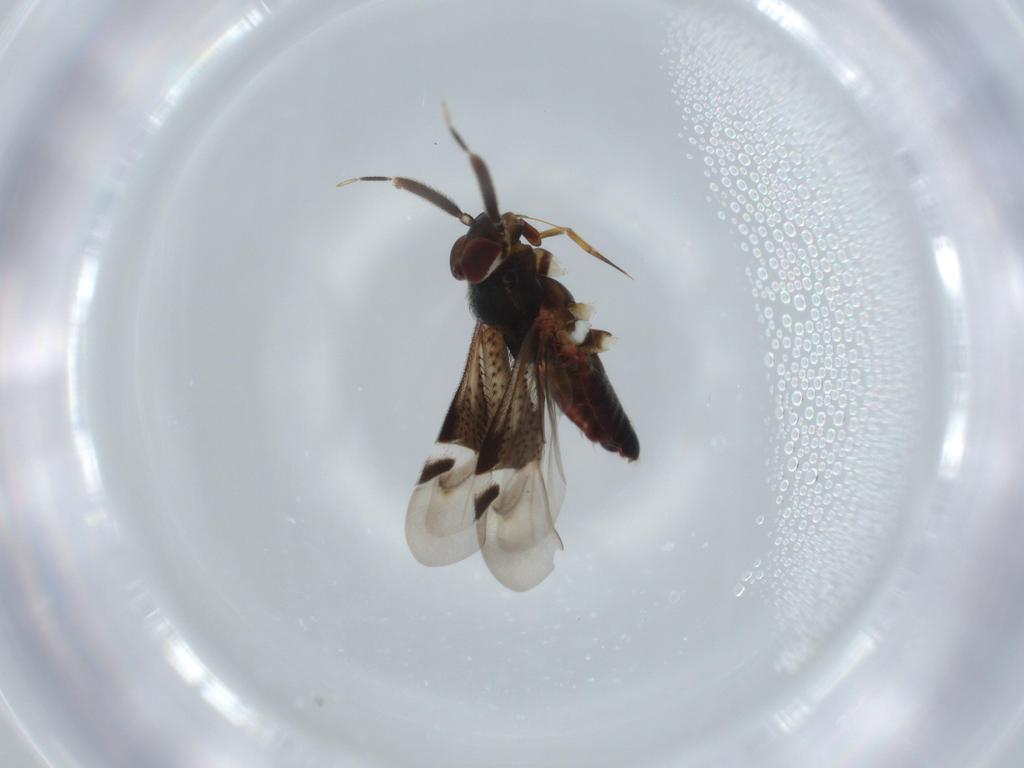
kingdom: Animalia
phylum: Arthropoda
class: Insecta
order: Hemiptera
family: Miridae
